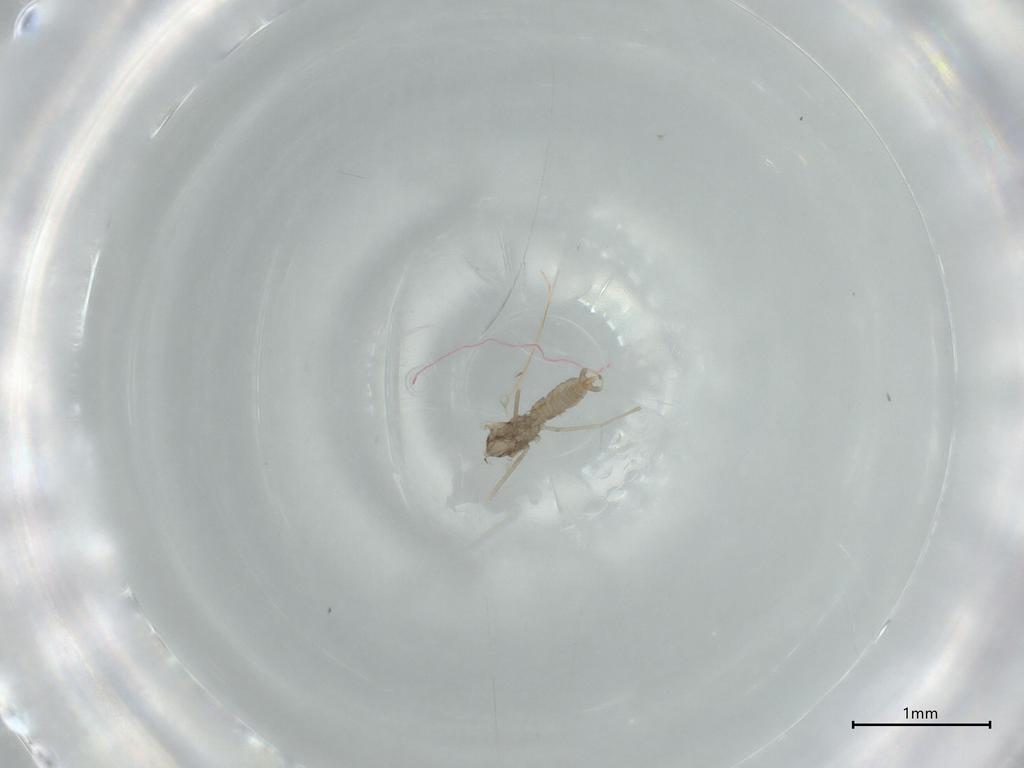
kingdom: Animalia
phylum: Arthropoda
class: Insecta
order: Diptera
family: Cecidomyiidae
